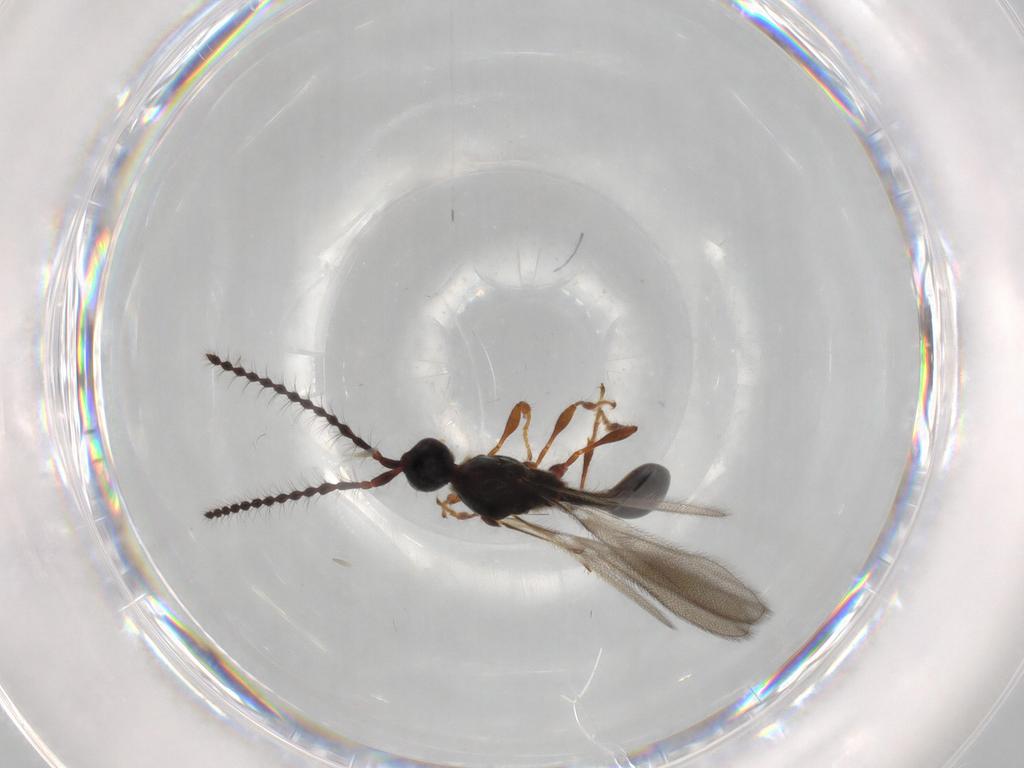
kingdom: Animalia
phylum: Arthropoda
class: Insecta
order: Hymenoptera
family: Diapriidae
